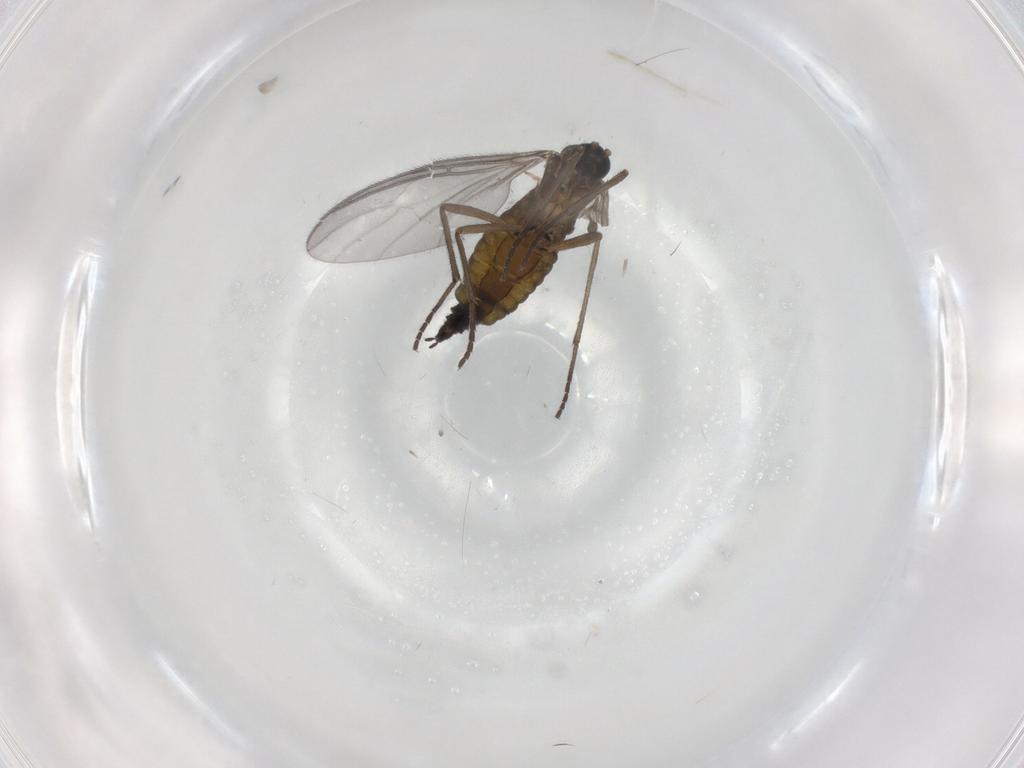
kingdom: Animalia
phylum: Arthropoda
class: Insecta
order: Diptera
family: Sciaridae
